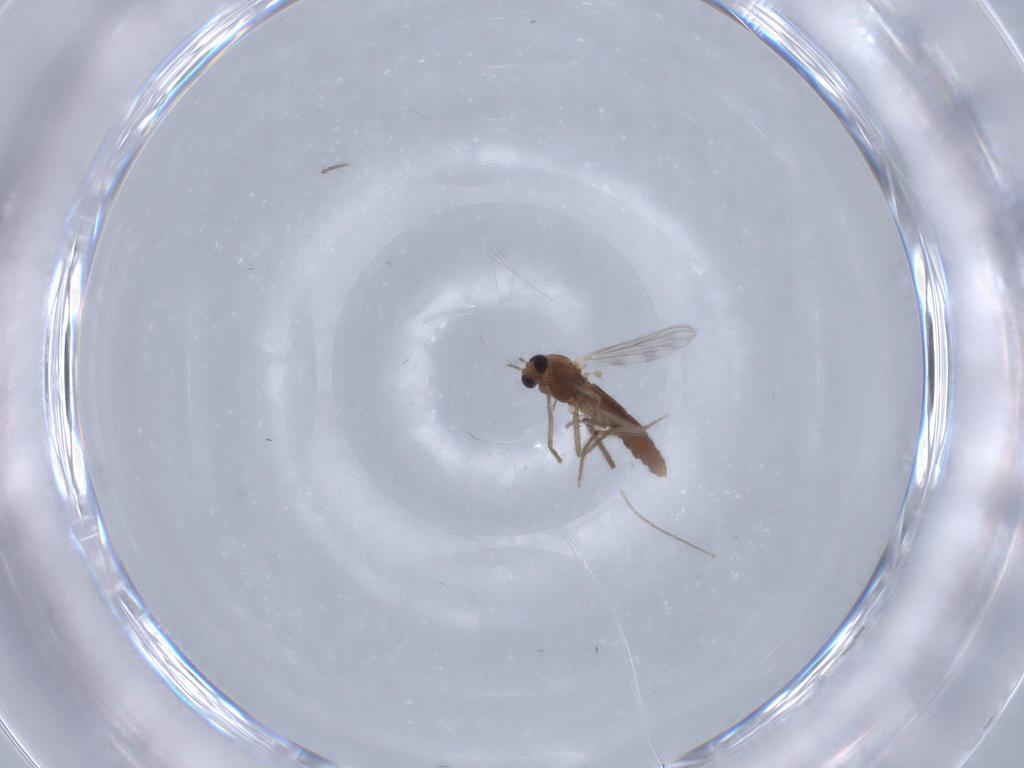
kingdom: Animalia
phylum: Arthropoda
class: Insecta
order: Diptera
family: Chironomidae
